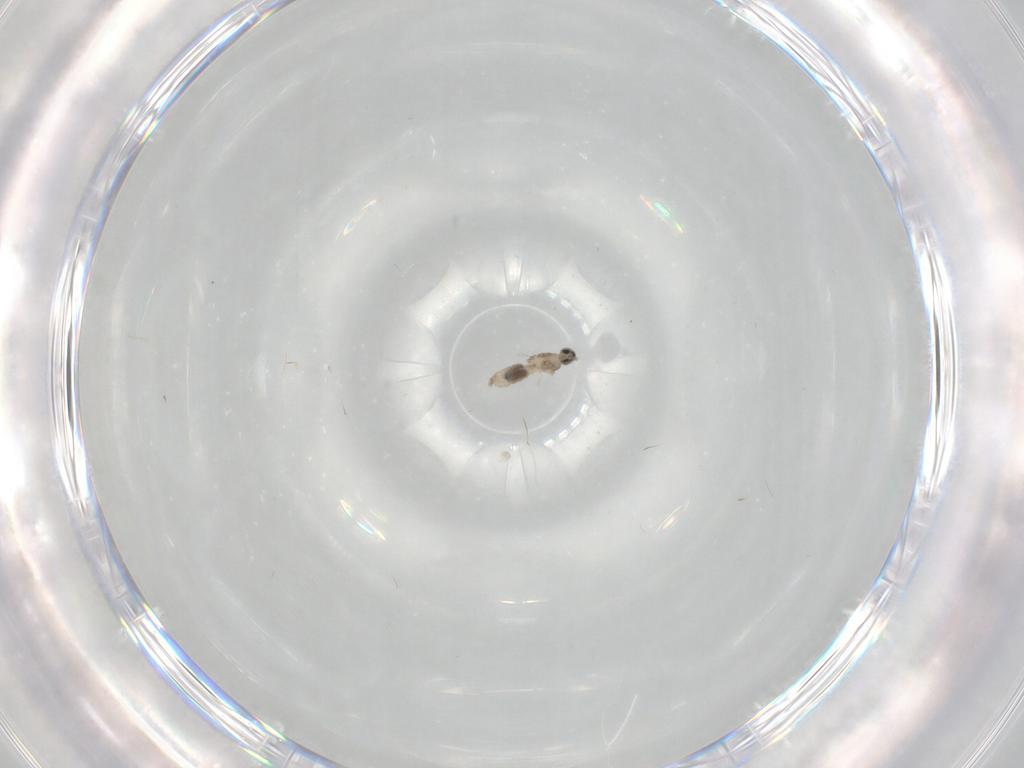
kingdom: Animalia
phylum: Arthropoda
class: Insecta
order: Diptera
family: Cecidomyiidae
